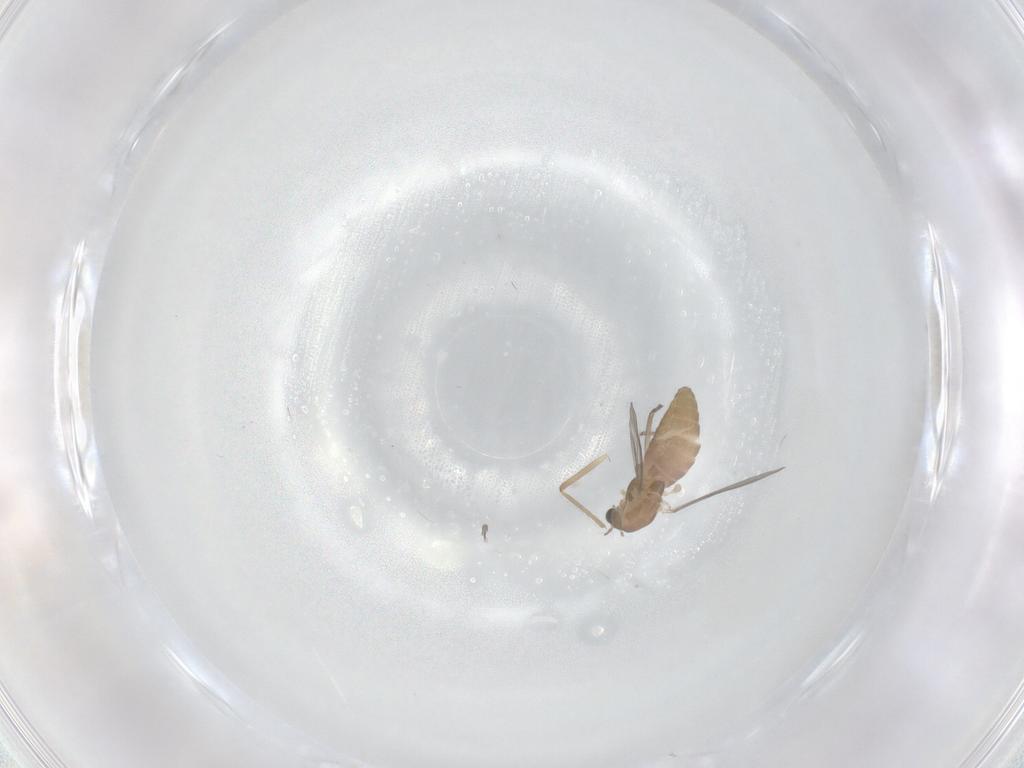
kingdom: Animalia
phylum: Arthropoda
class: Insecta
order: Diptera
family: Chironomidae
